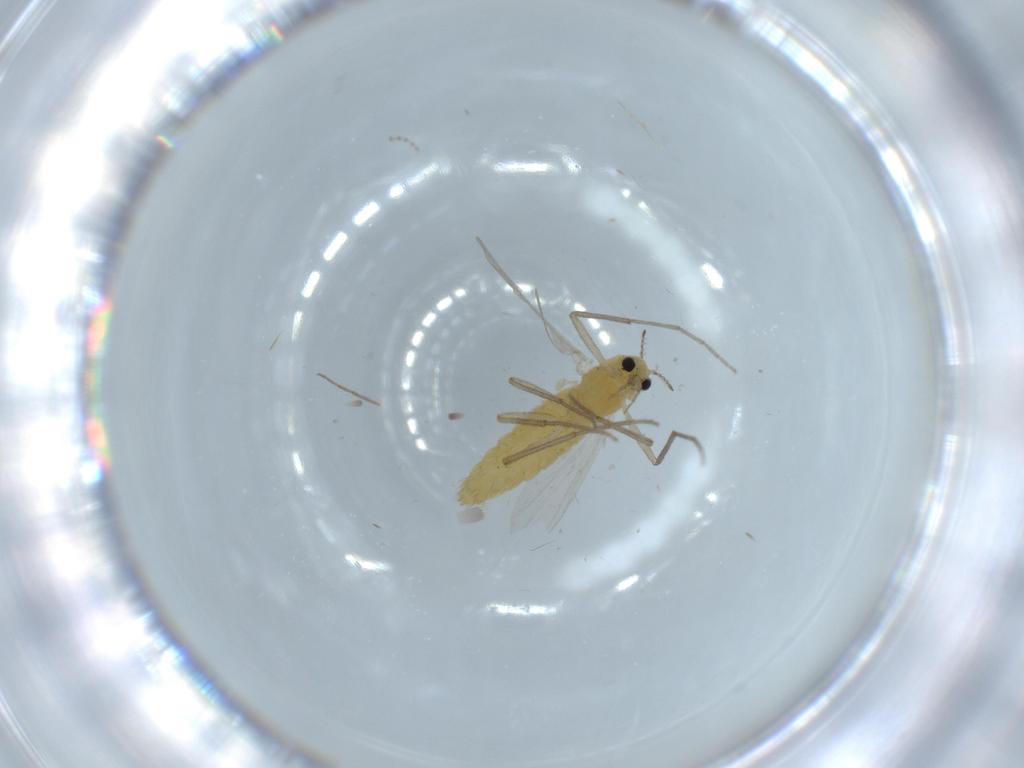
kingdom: Animalia
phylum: Arthropoda
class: Insecta
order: Diptera
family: Chironomidae
